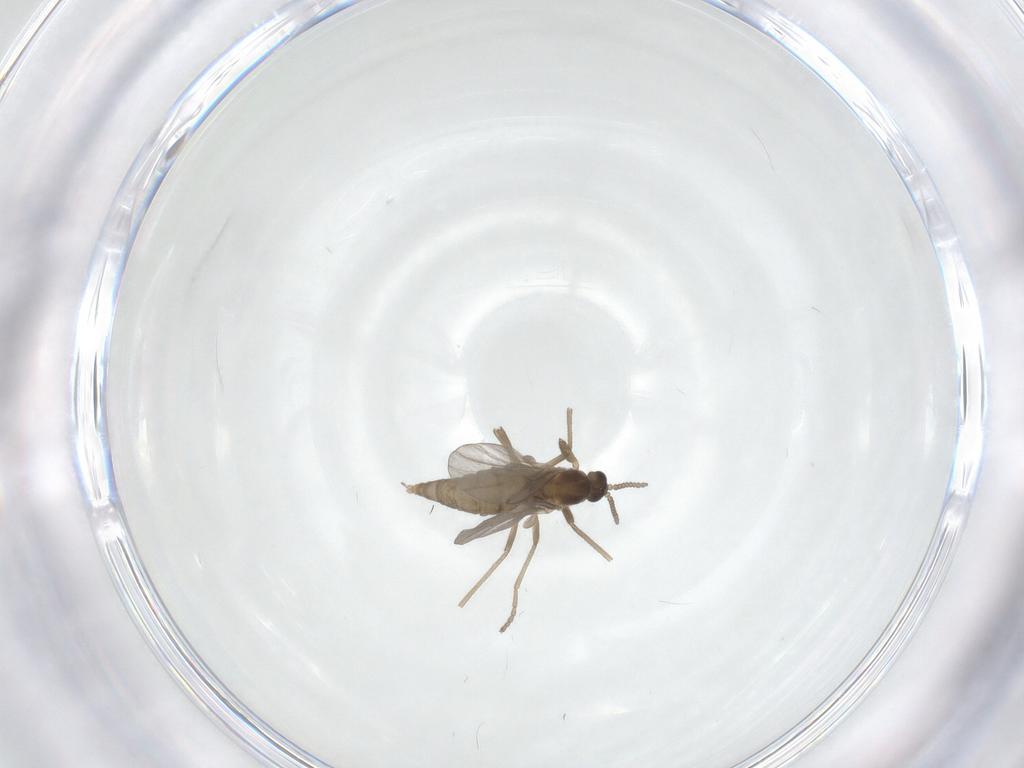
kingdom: Animalia
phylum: Arthropoda
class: Insecta
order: Diptera
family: Cecidomyiidae
